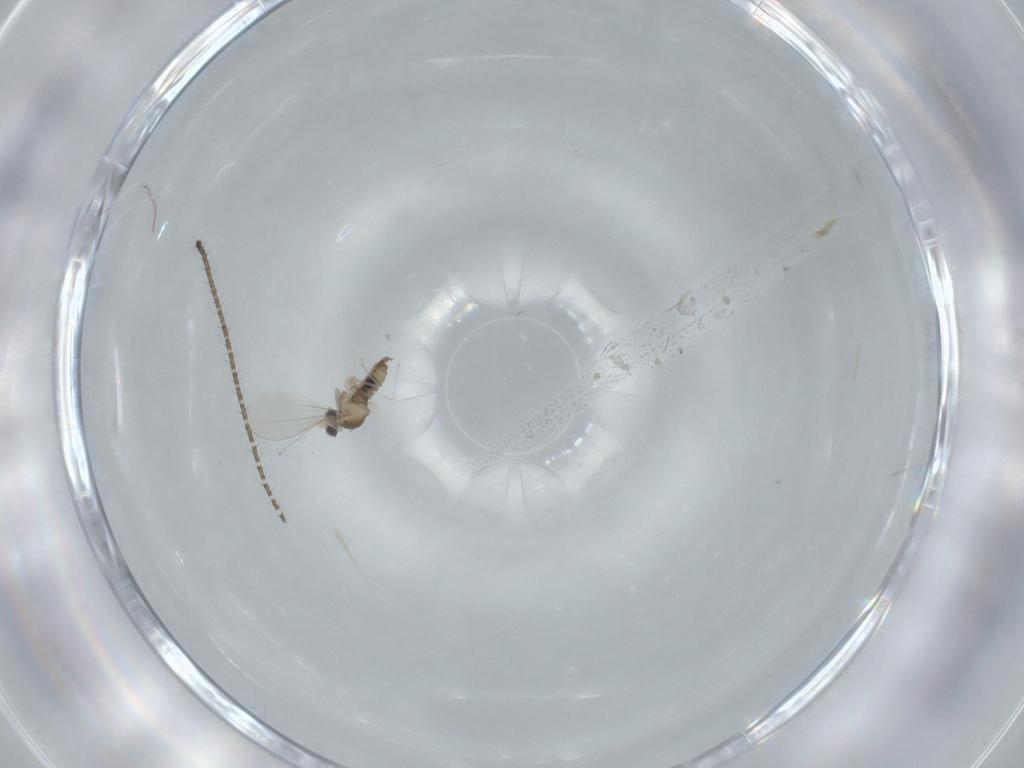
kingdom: Animalia
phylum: Arthropoda
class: Insecta
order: Diptera
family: Cecidomyiidae
